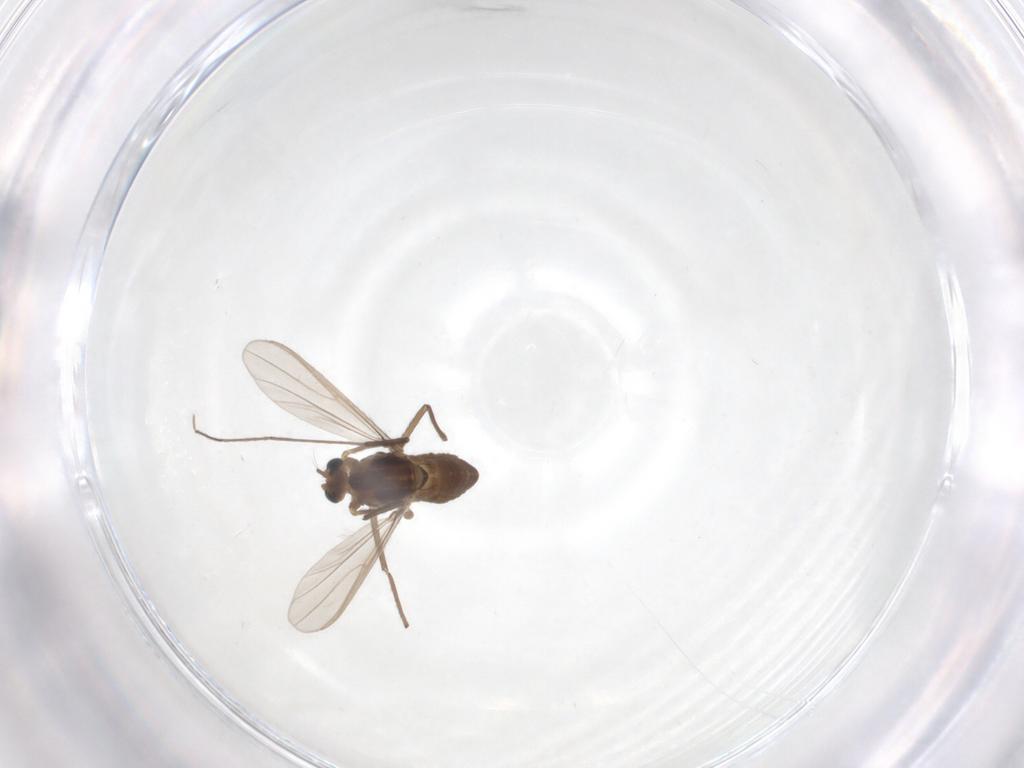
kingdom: Animalia
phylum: Arthropoda
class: Insecta
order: Diptera
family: Chironomidae
